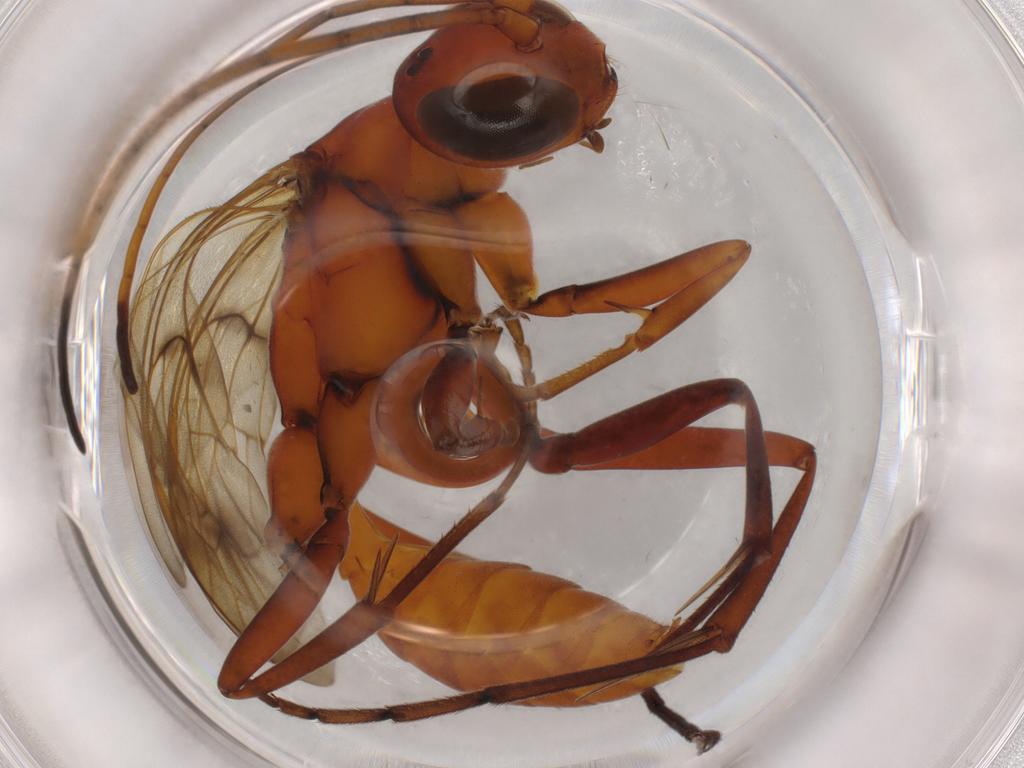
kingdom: Animalia
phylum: Arthropoda
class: Insecta
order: Hymenoptera
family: Pompilidae
